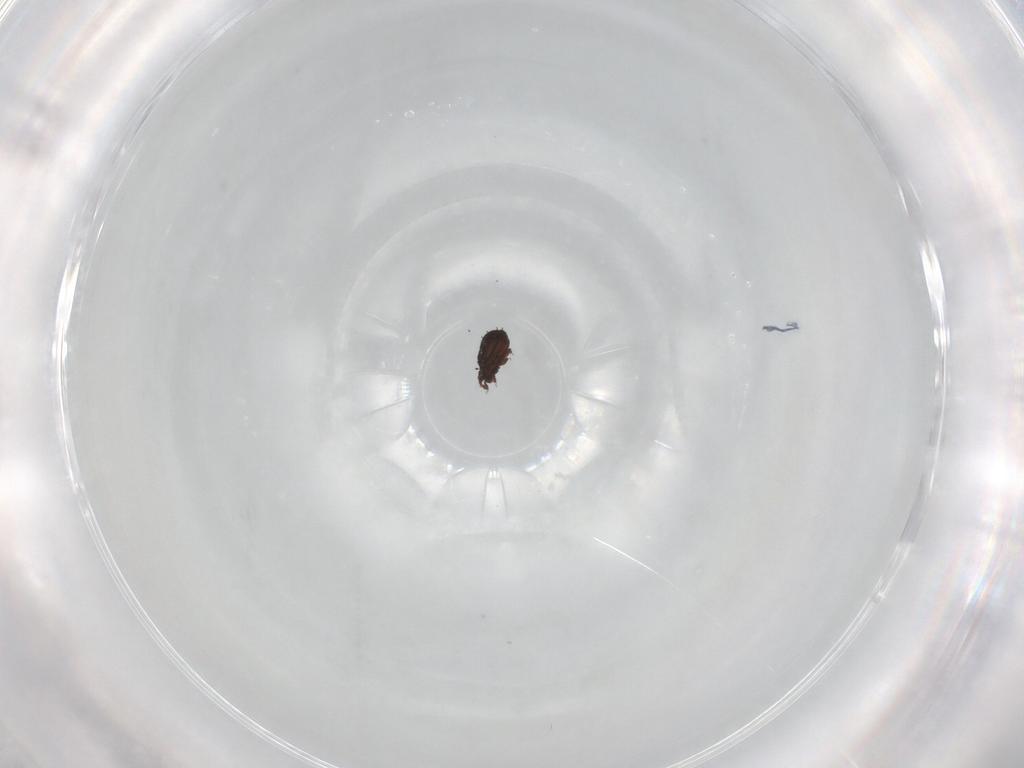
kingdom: Animalia
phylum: Arthropoda
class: Arachnida
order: Sarcoptiformes
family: Cymbaeremaeidae
